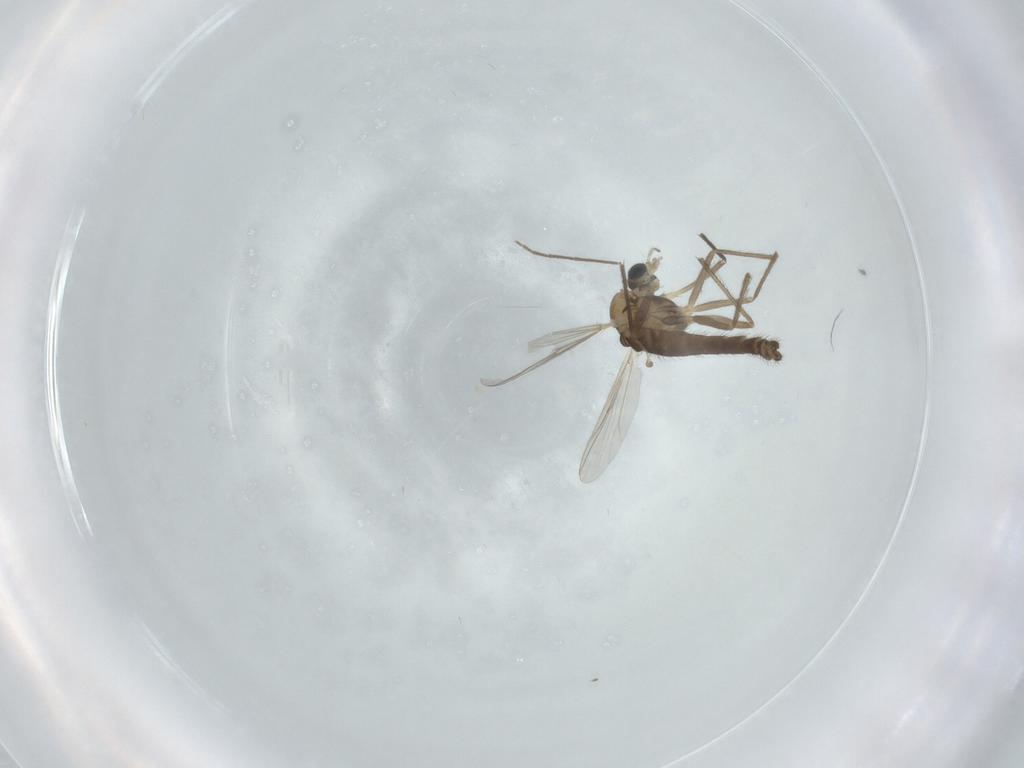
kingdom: Animalia
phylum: Arthropoda
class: Insecta
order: Diptera
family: Chironomidae
